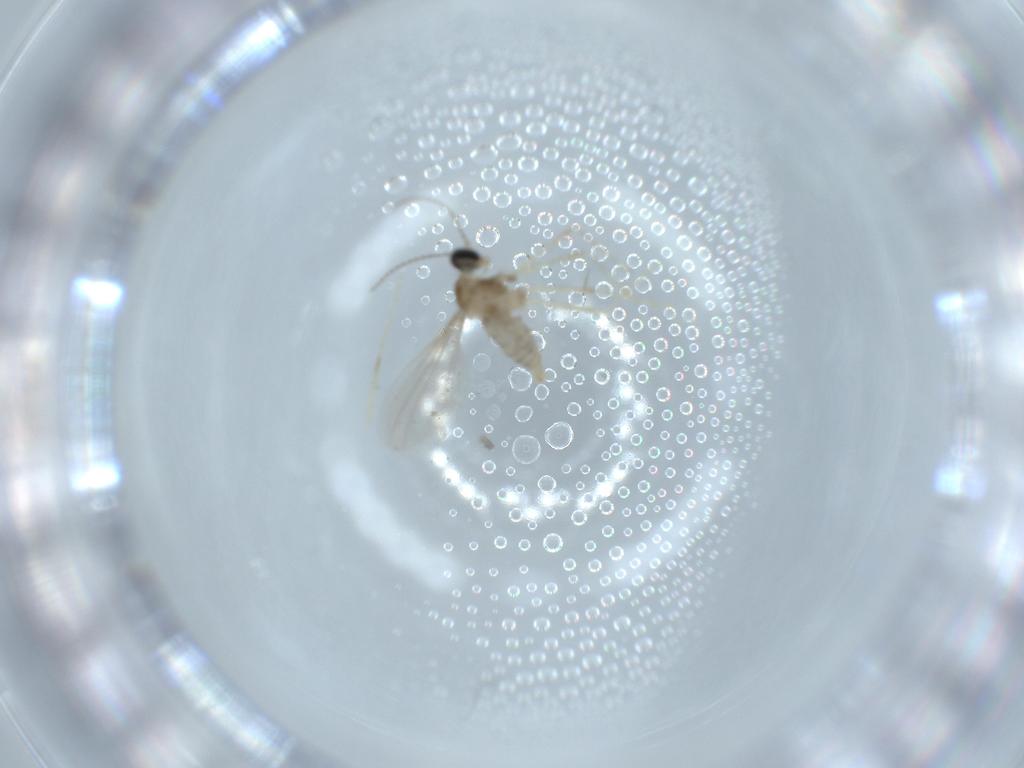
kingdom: Animalia
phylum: Arthropoda
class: Insecta
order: Diptera
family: Cecidomyiidae
